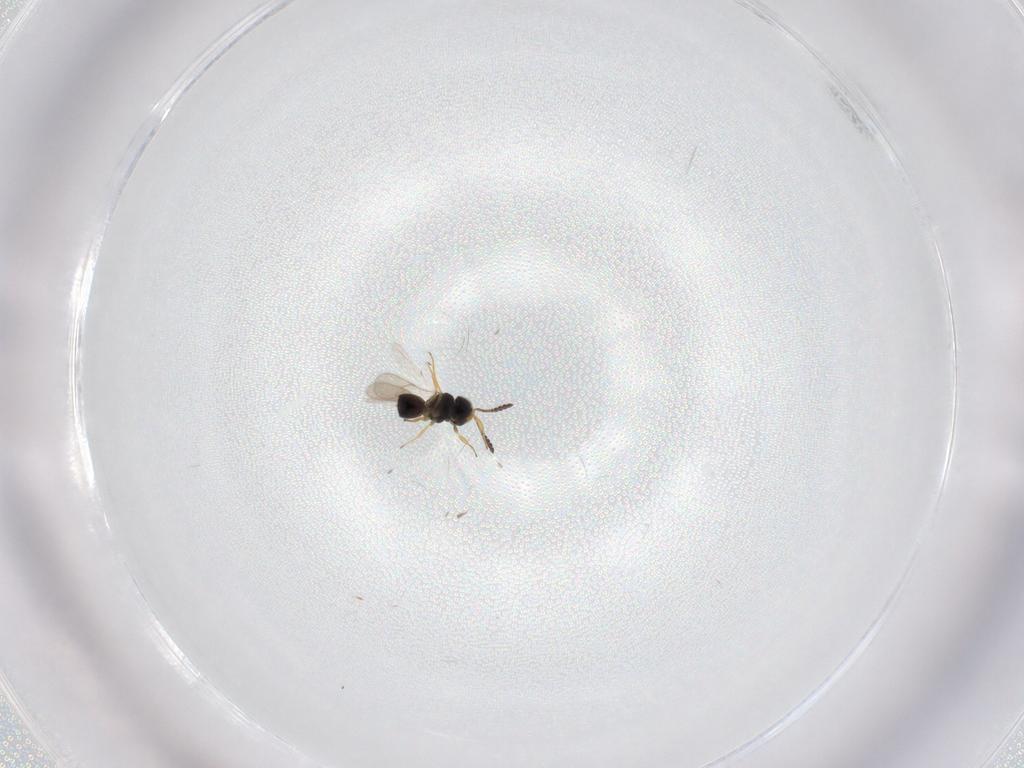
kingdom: Animalia
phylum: Arthropoda
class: Insecta
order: Hymenoptera
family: Scelionidae
